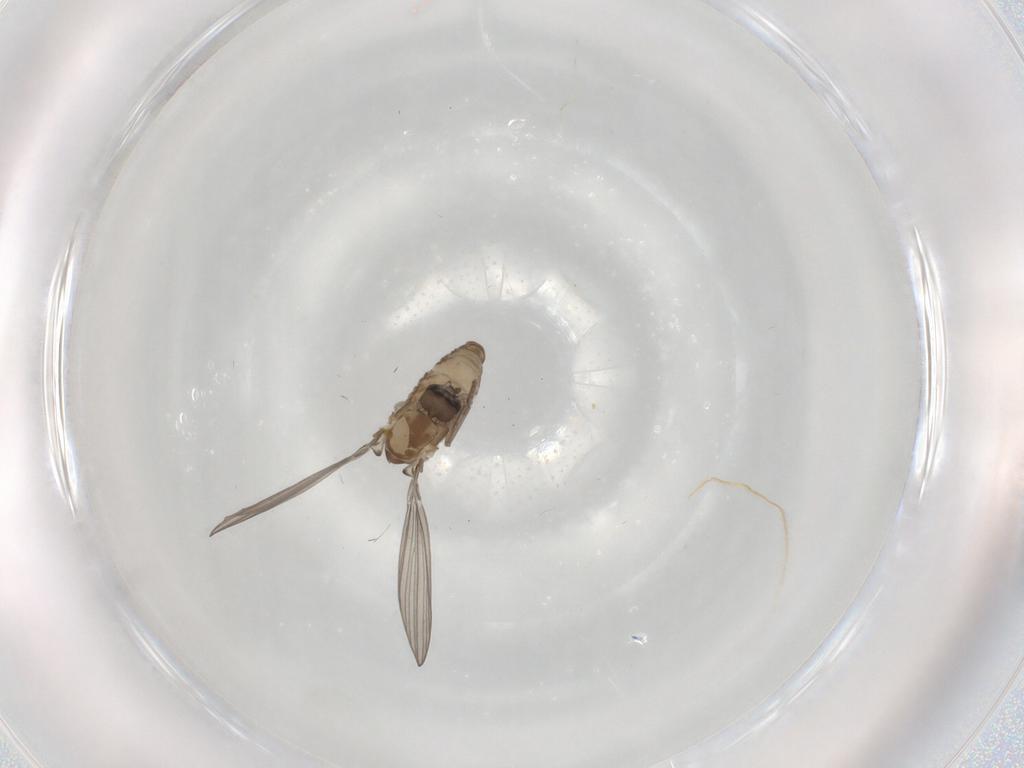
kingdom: Animalia
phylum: Arthropoda
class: Insecta
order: Diptera
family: Psychodidae
